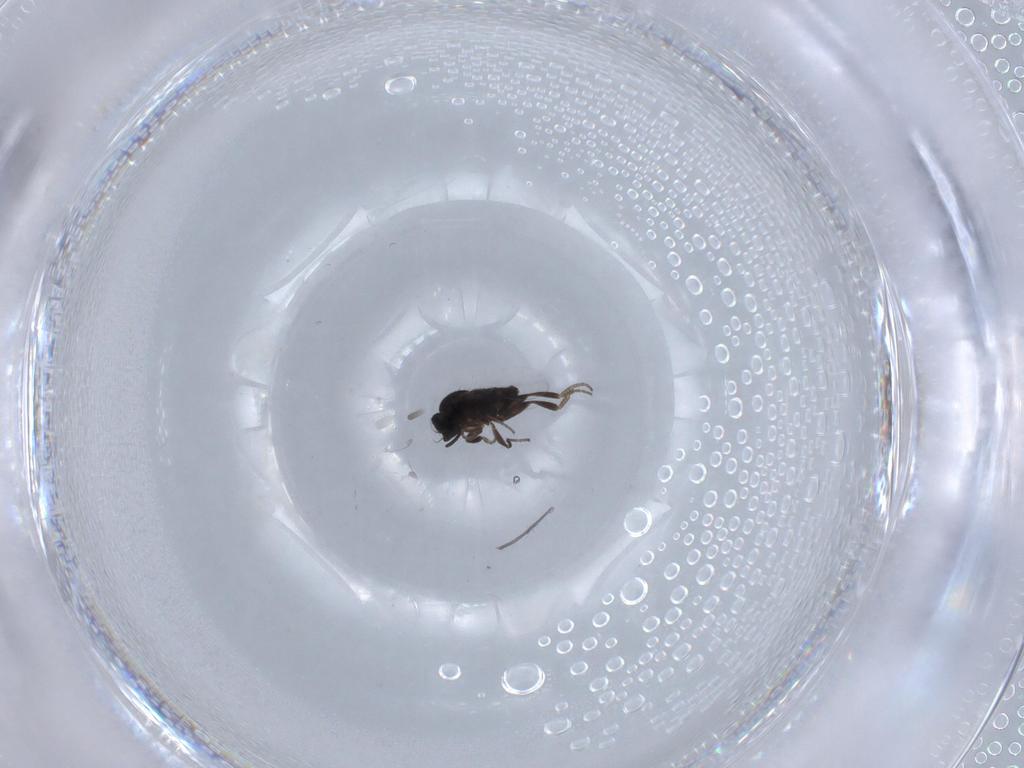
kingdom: Animalia
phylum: Arthropoda
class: Insecta
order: Diptera
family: Phoridae
